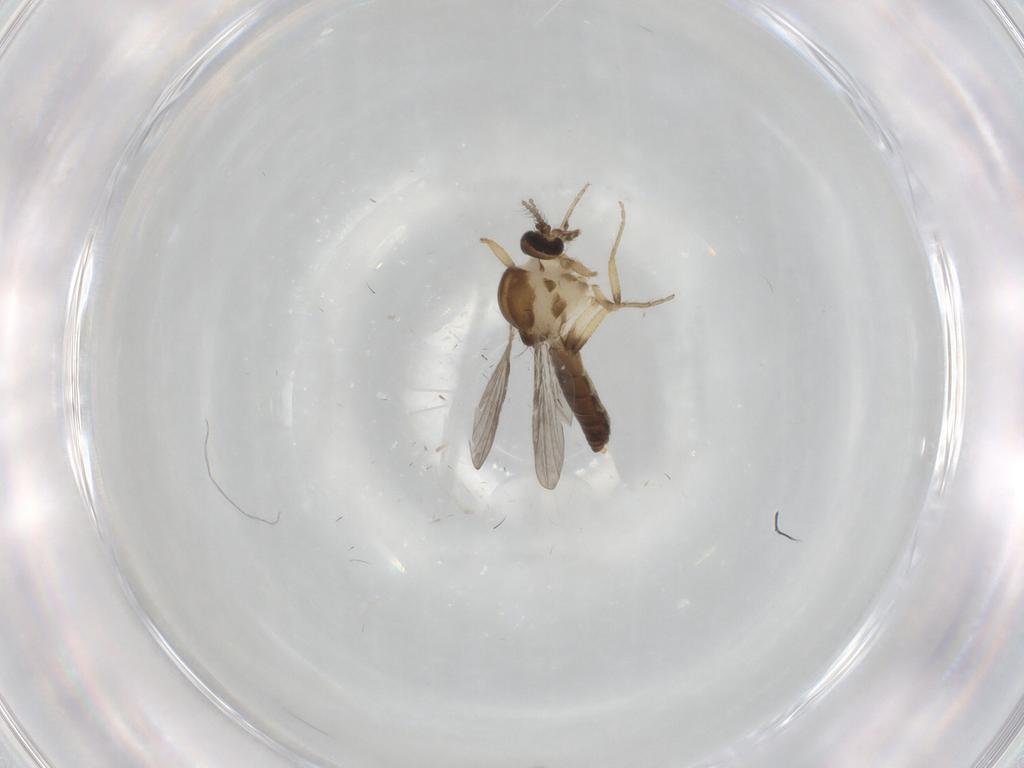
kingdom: Animalia
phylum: Arthropoda
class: Insecta
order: Diptera
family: Ceratopogonidae
